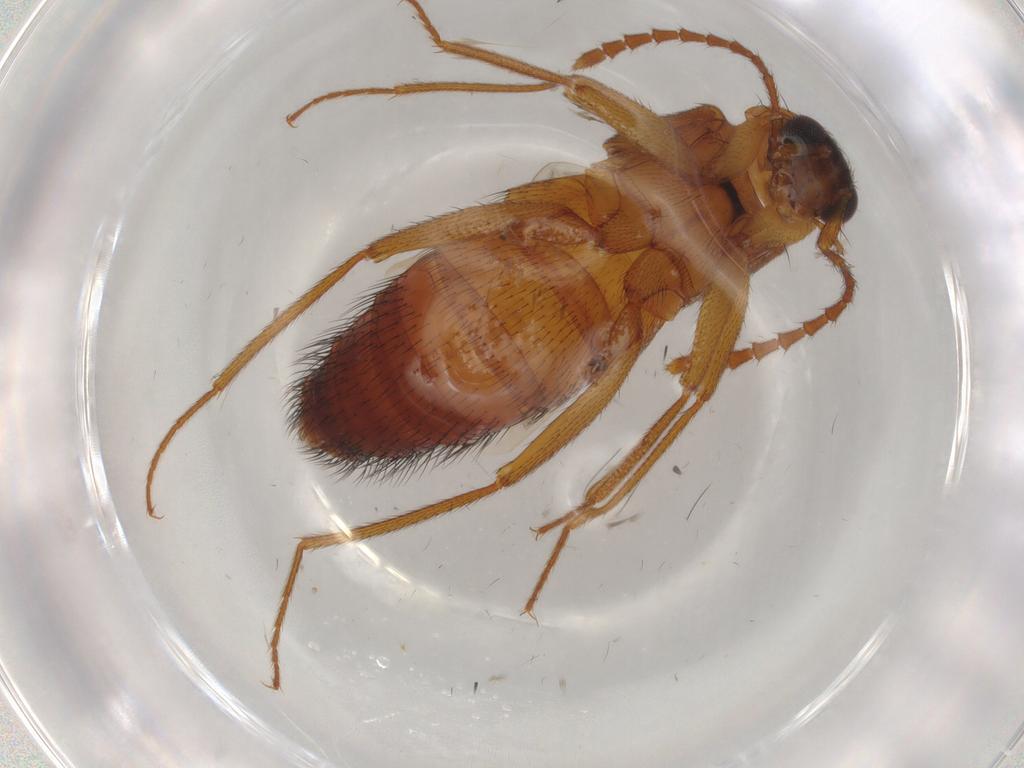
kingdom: Animalia
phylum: Arthropoda
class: Insecta
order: Coleoptera
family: Staphylinidae
